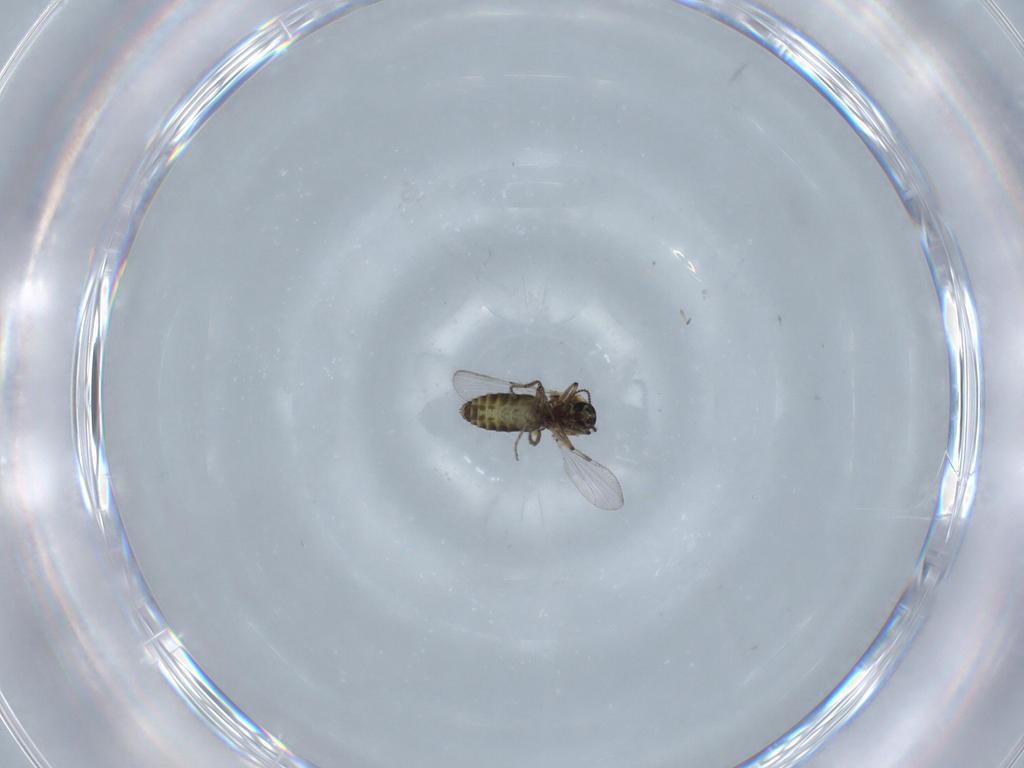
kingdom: Animalia
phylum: Arthropoda
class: Insecta
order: Diptera
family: Ceratopogonidae
